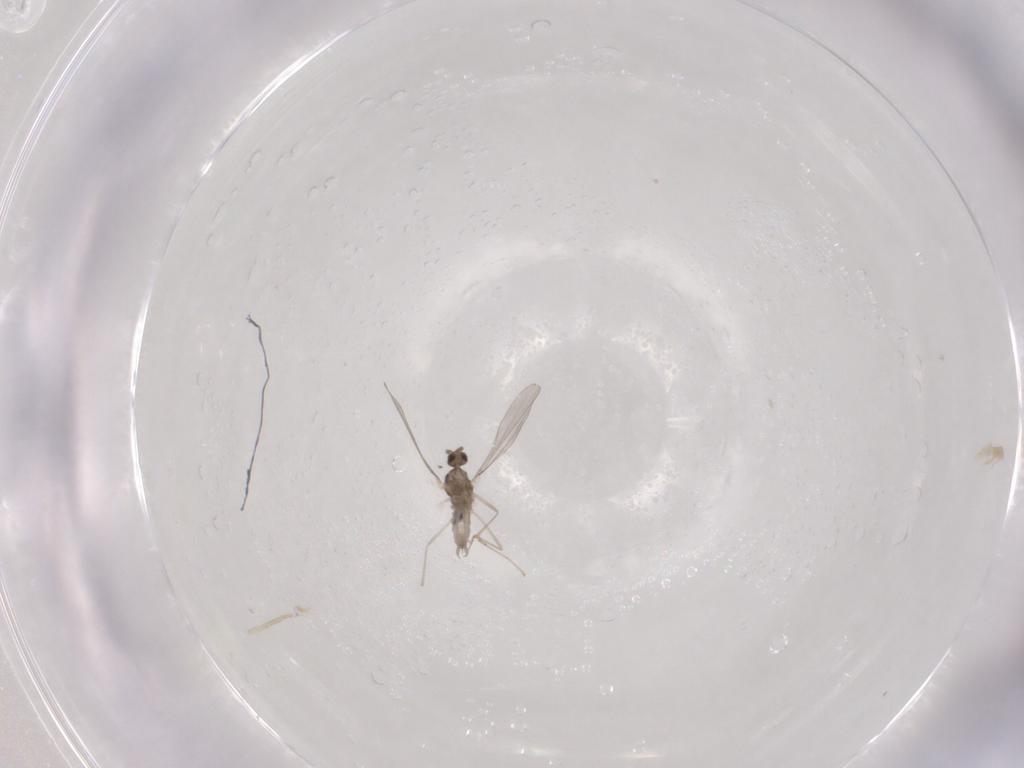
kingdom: Animalia
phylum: Arthropoda
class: Insecta
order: Diptera
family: Cecidomyiidae
